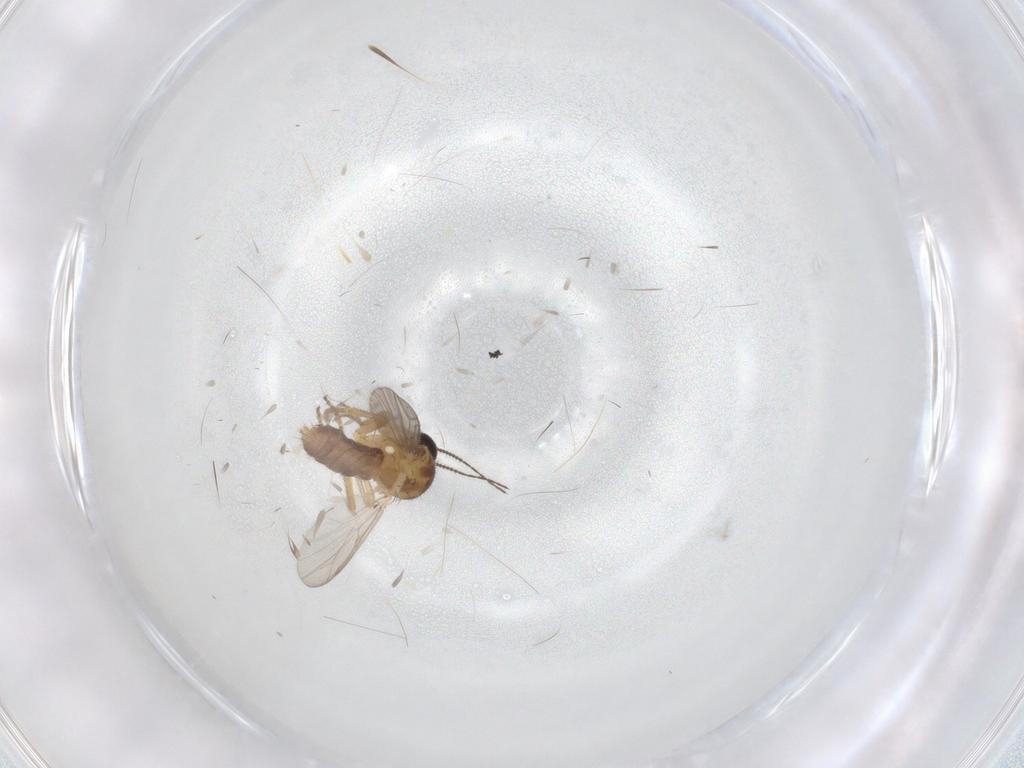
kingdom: Animalia
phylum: Arthropoda
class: Insecta
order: Diptera
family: Ceratopogonidae
